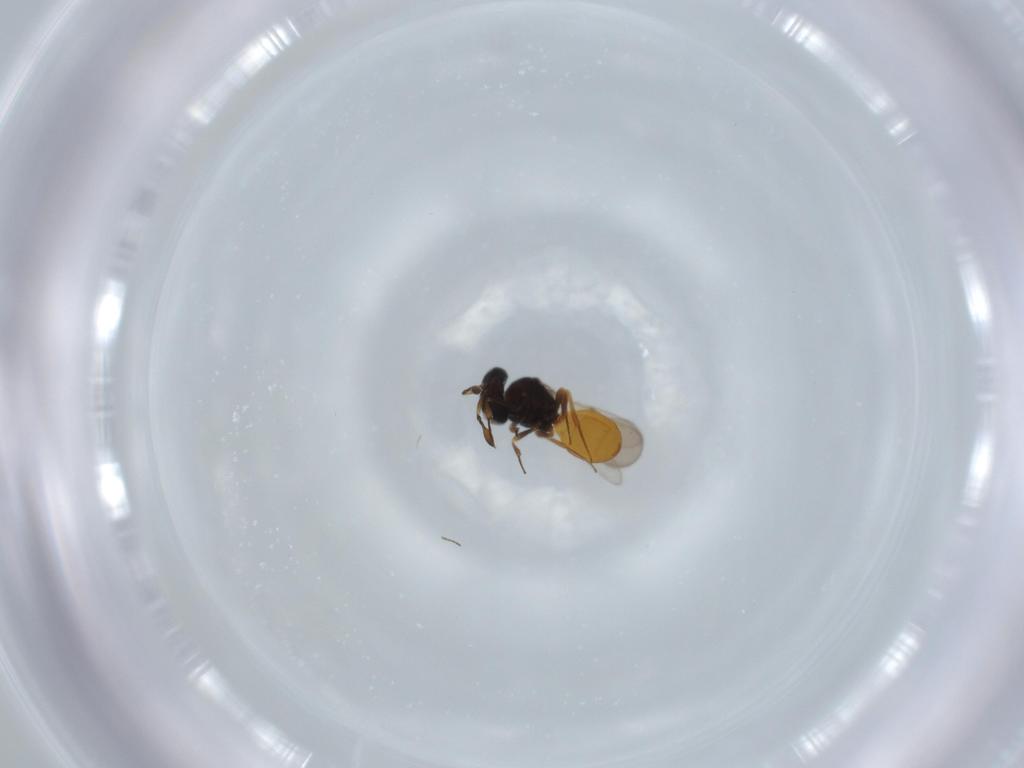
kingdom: Animalia
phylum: Arthropoda
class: Insecta
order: Hymenoptera
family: Scelionidae
